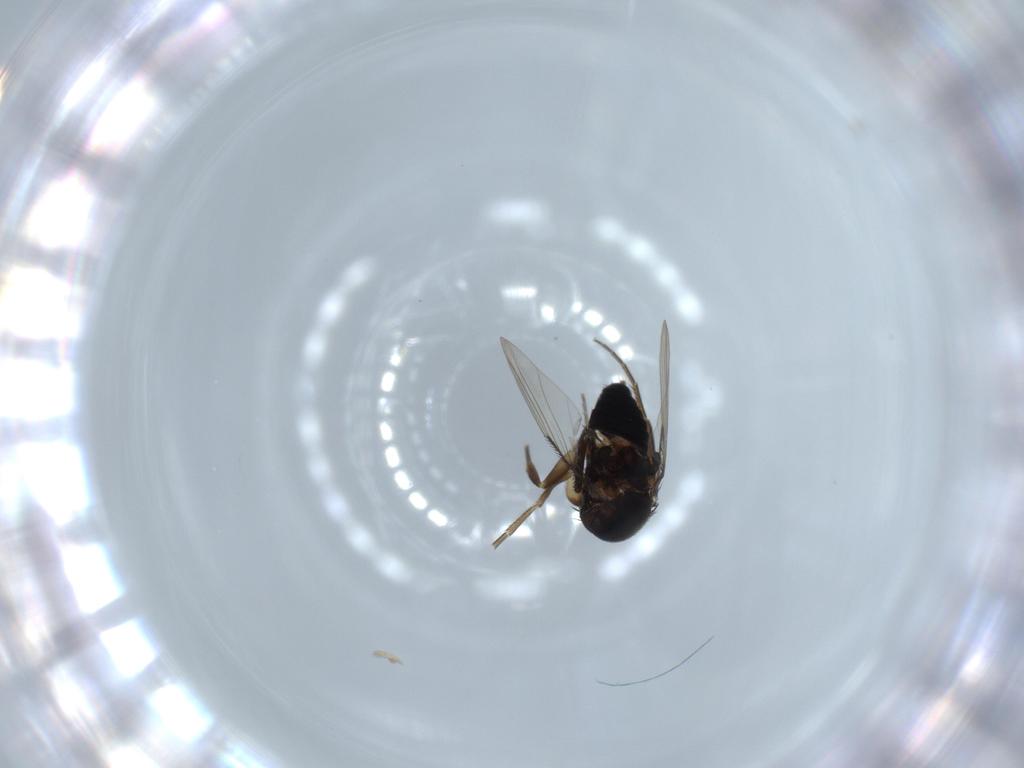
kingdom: Animalia
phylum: Arthropoda
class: Insecta
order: Diptera
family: Phoridae
